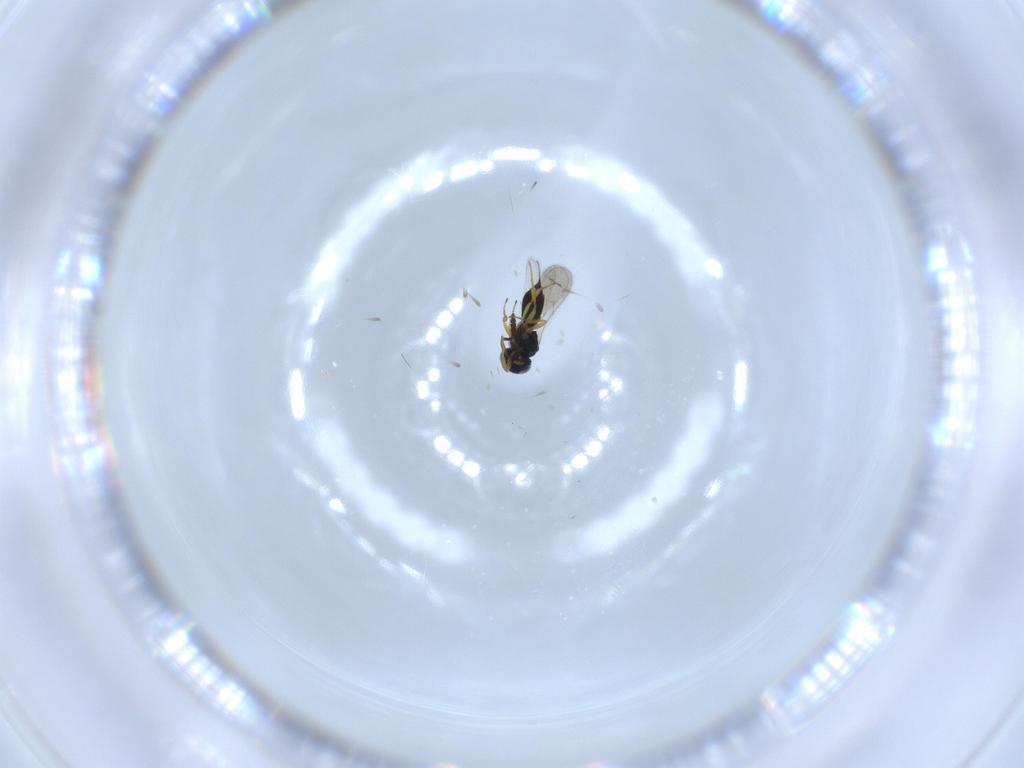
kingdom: Animalia
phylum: Arthropoda
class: Insecta
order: Hymenoptera
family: Scelionidae
